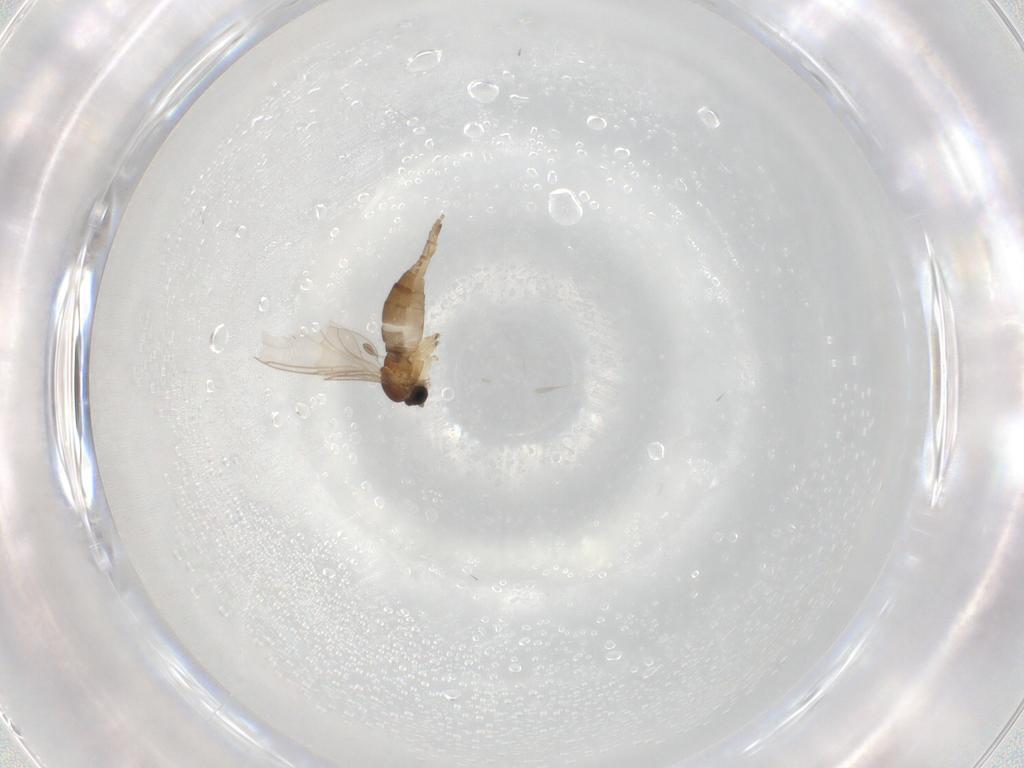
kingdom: Animalia
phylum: Arthropoda
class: Insecta
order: Diptera
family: Sciaridae
